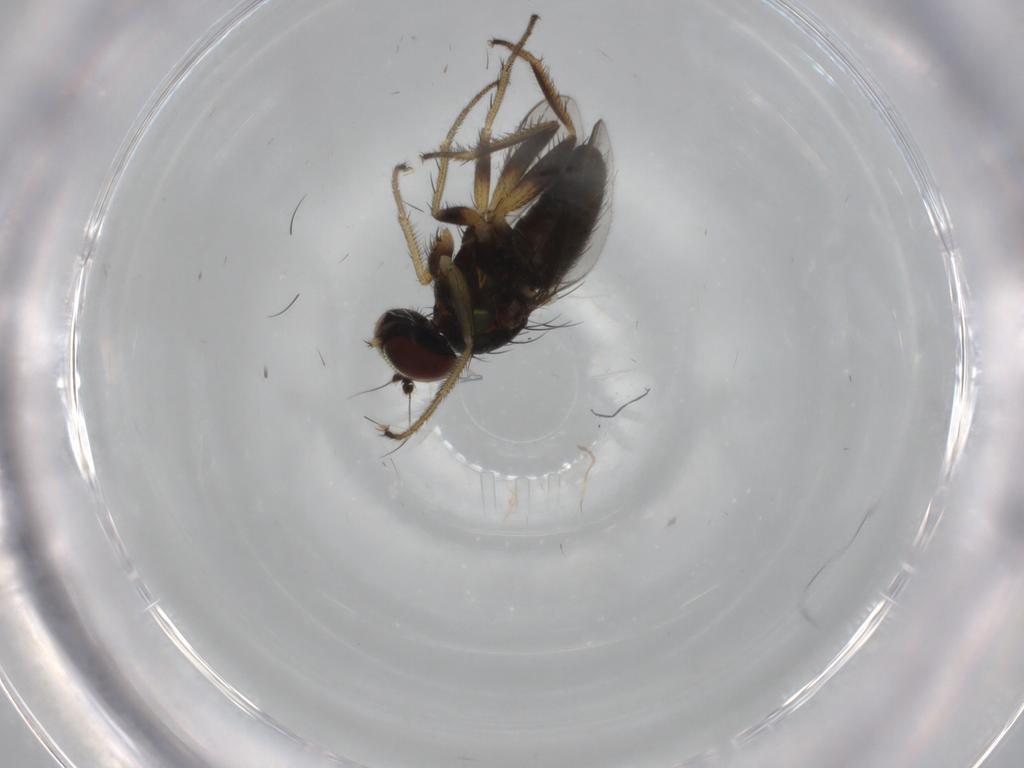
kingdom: Animalia
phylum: Arthropoda
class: Insecta
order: Diptera
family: Dolichopodidae
